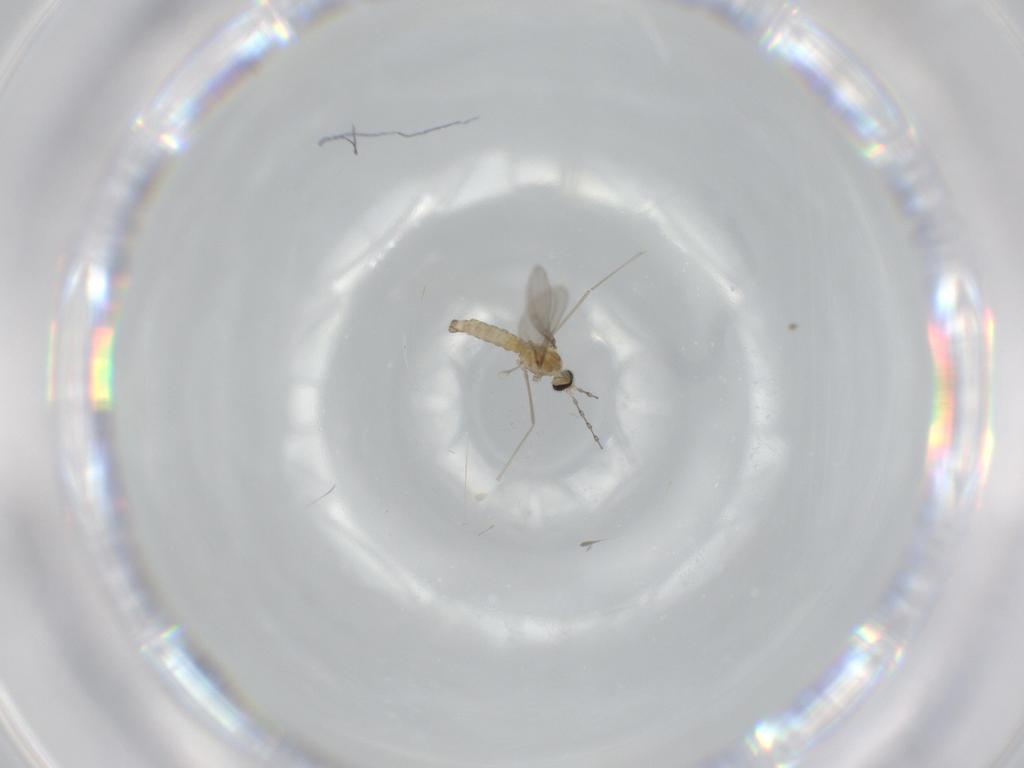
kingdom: Animalia
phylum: Arthropoda
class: Insecta
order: Diptera
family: Cecidomyiidae
